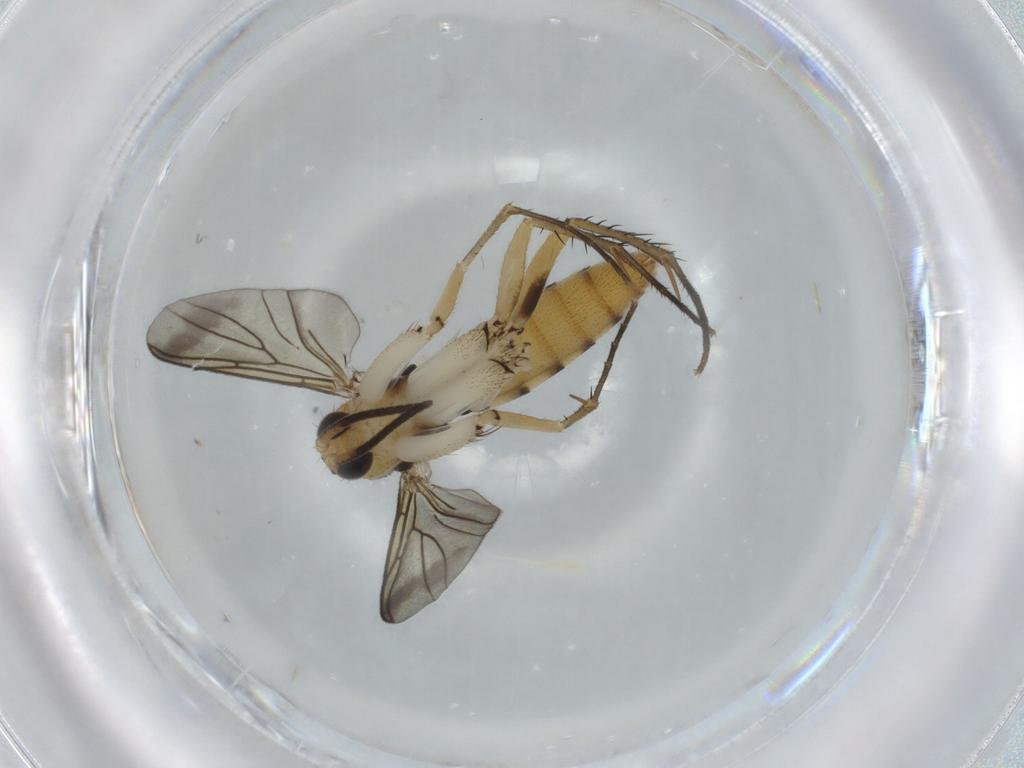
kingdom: Animalia
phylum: Arthropoda
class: Insecta
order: Diptera
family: Mycetophilidae
